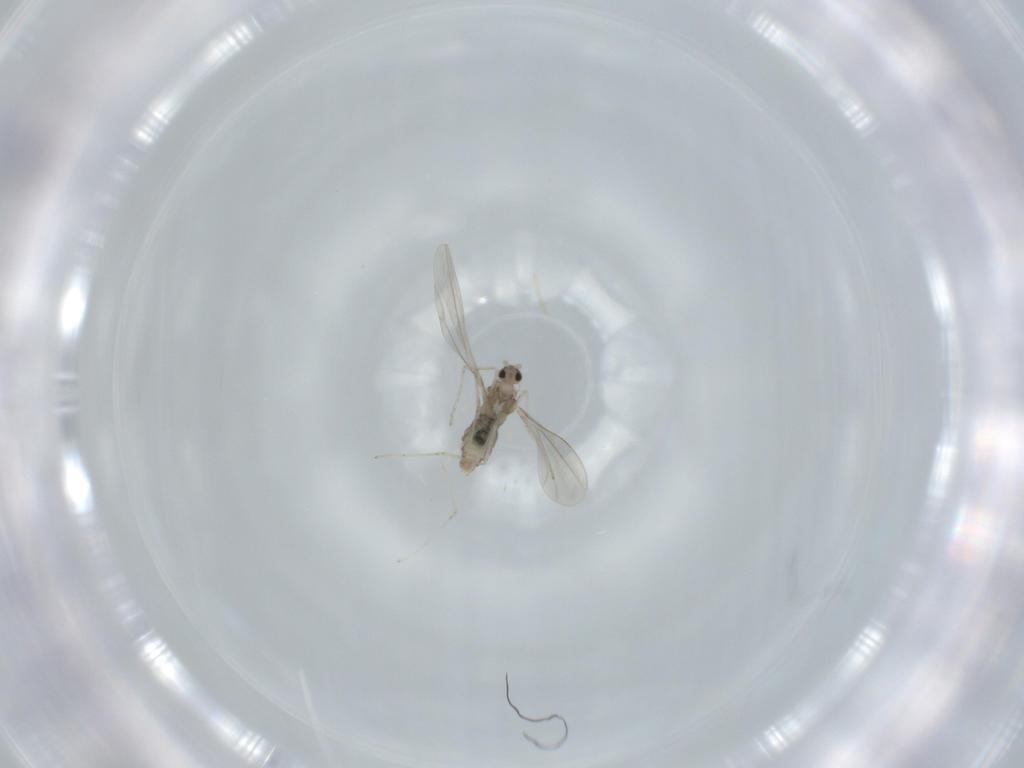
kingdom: Animalia
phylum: Arthropoda
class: Insecta
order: Diptera
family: Cecidomyiidae
